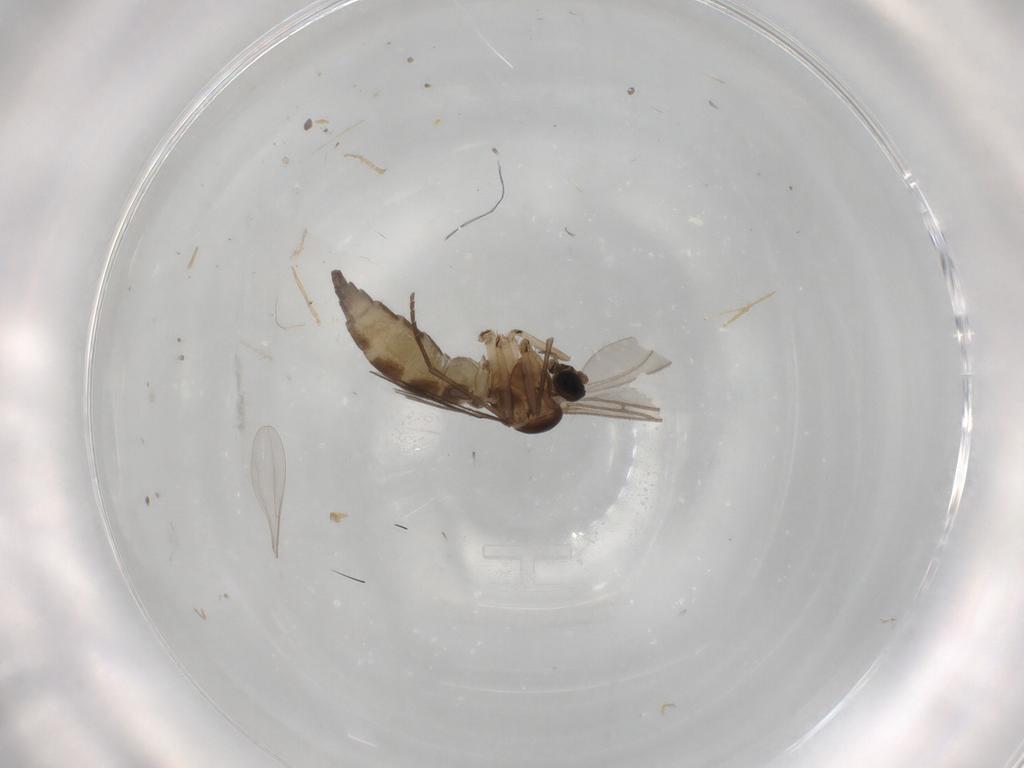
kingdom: Animalia
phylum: Arthropoda
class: Insecta
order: Diptera
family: Sciaridae
